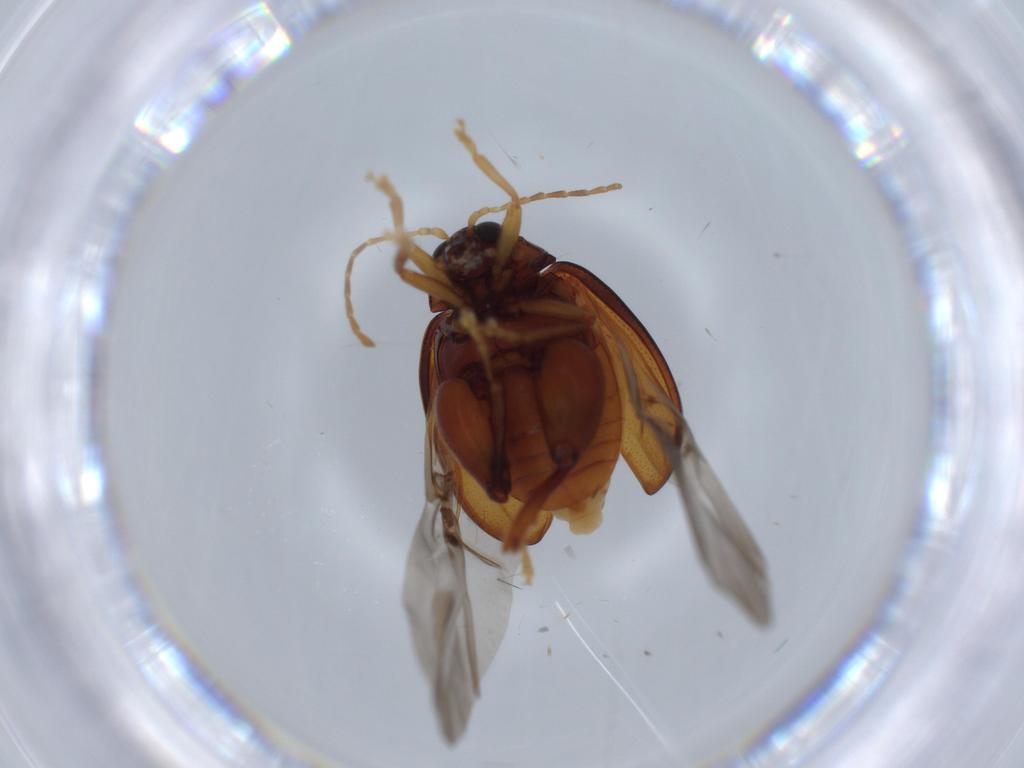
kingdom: Animalia
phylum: Arthropoda
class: Insecta
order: Coleoptera
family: Chrysomelidae
